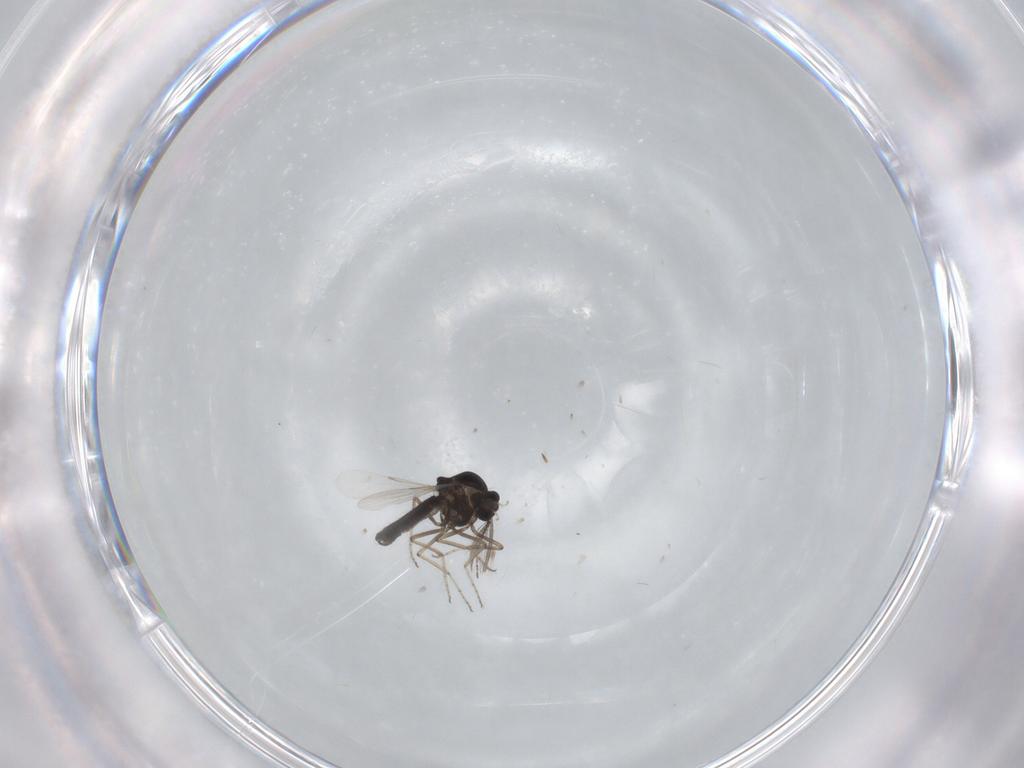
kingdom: Animalia
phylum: Arthropoda
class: Insecta
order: Diptera
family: Ceratopogonidae
